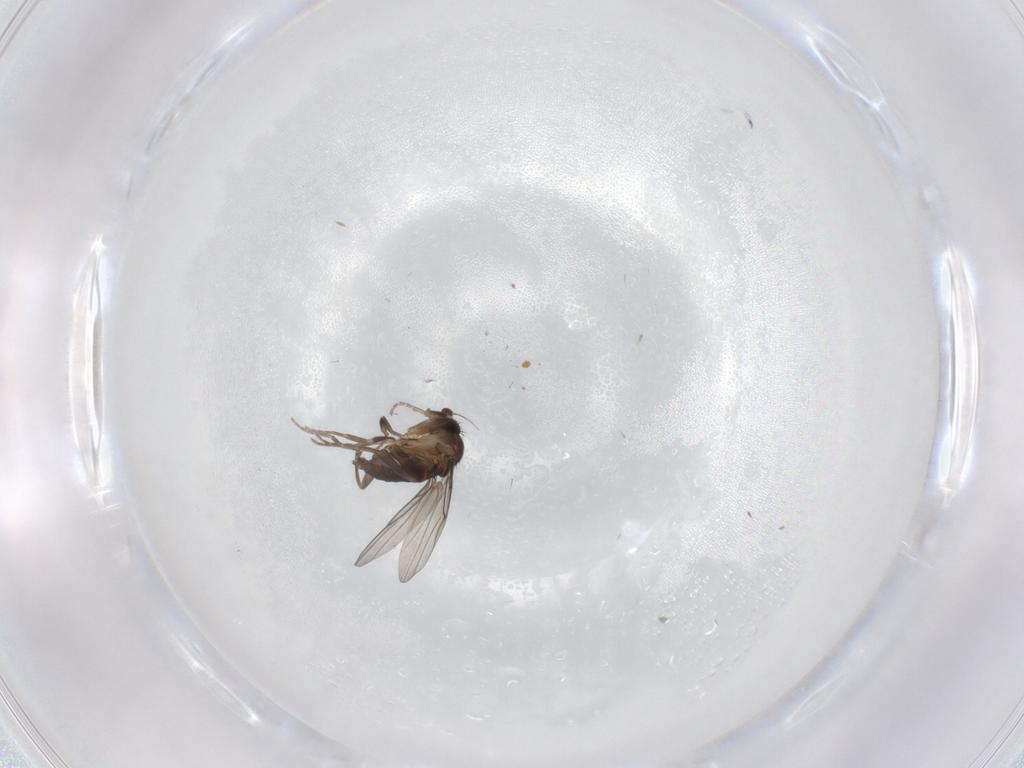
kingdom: Animalia
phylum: Arthropoda
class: Insecta
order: Diptera
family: Phoridae
